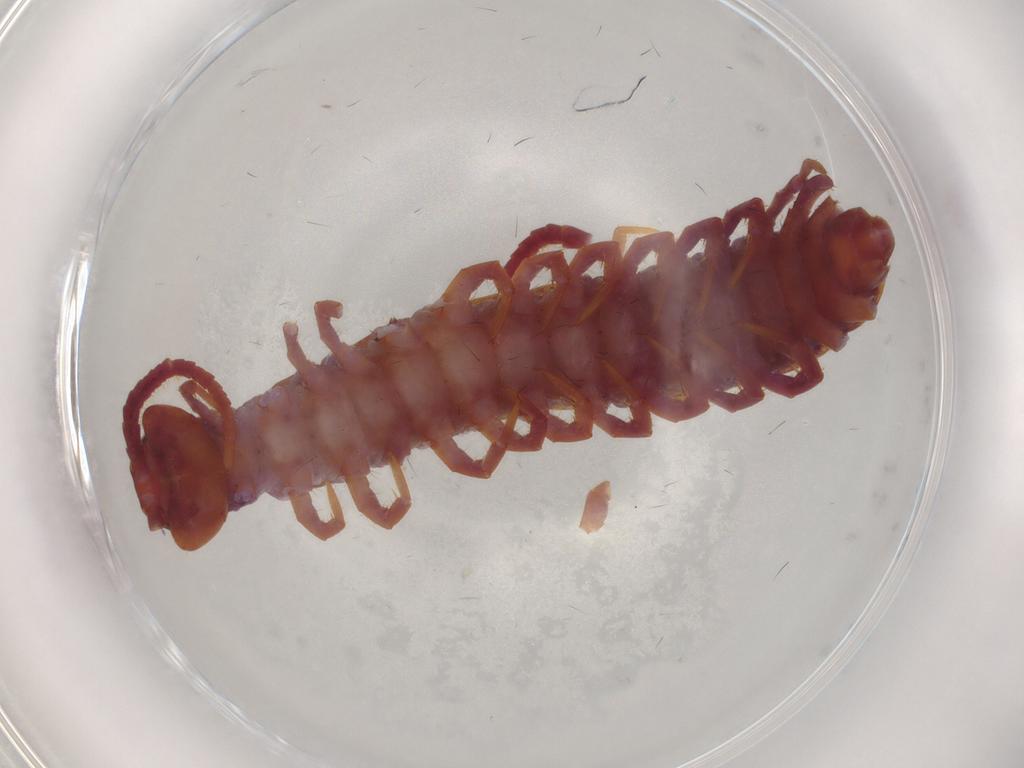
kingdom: Animalia
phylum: Arthropoda
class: Chilopoda
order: Lithobiomorpha
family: Lithobiidae
